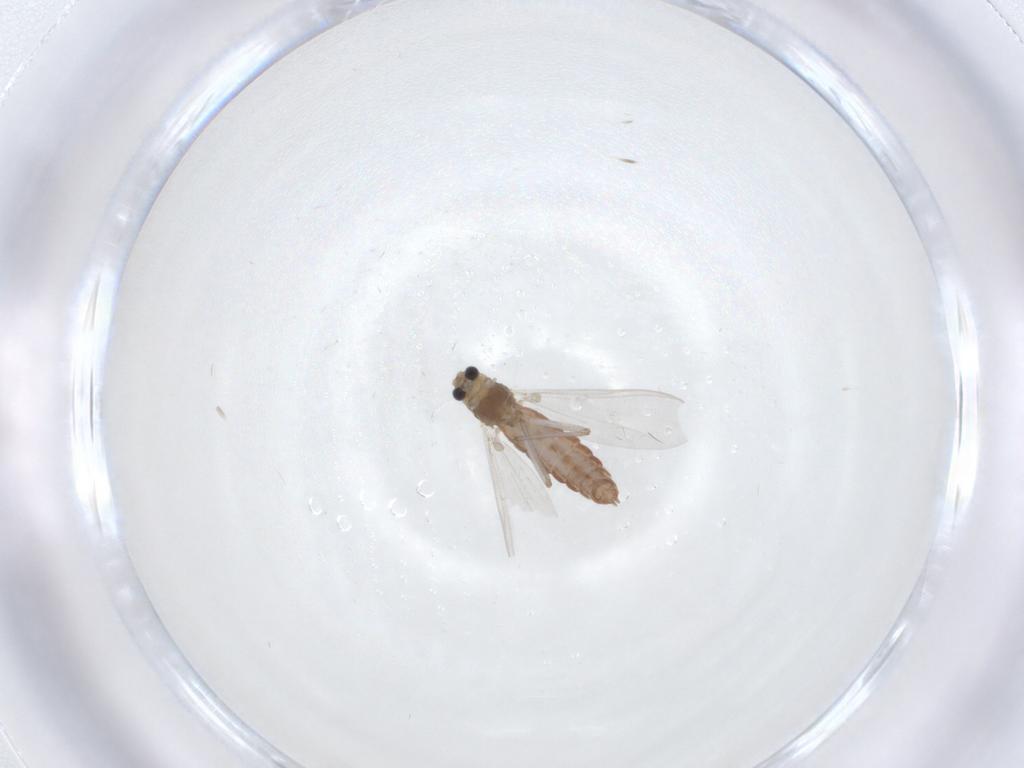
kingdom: Animalia
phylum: Arthropoda
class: Insecta
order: Diptera
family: Chironomidae
